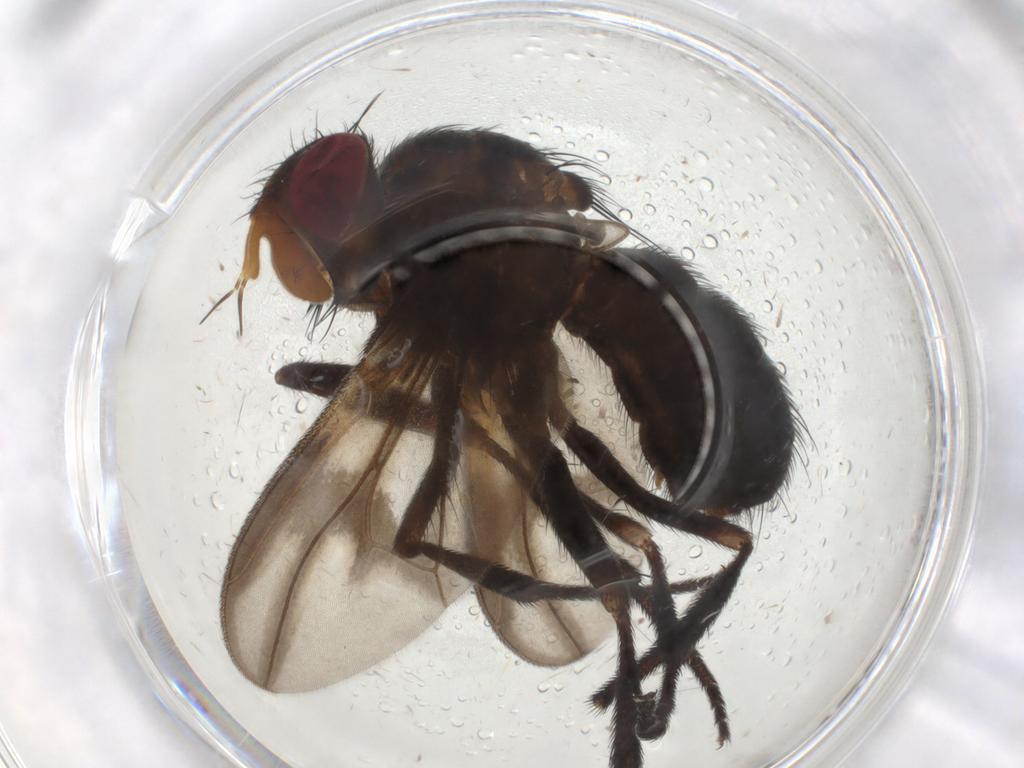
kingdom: Animalia
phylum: Arthropoda
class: Insecta
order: Diptera
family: Calliphoridae
